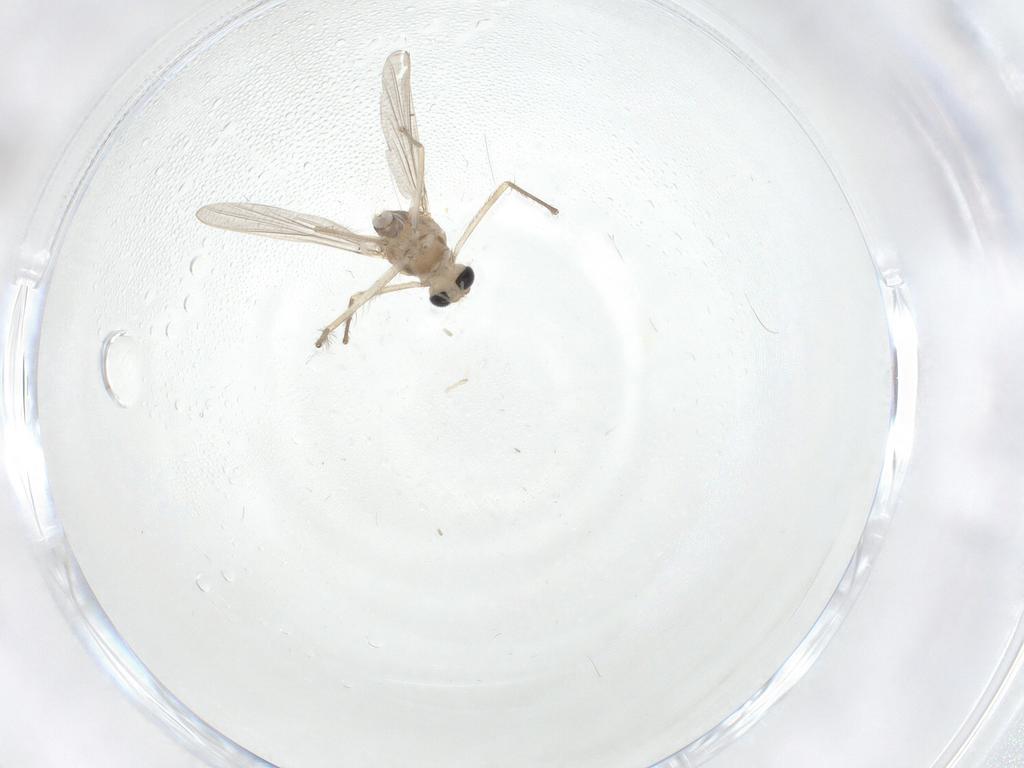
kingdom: Animalia
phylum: Arthropoda
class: Insecta
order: Diptera
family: Chironomidae
